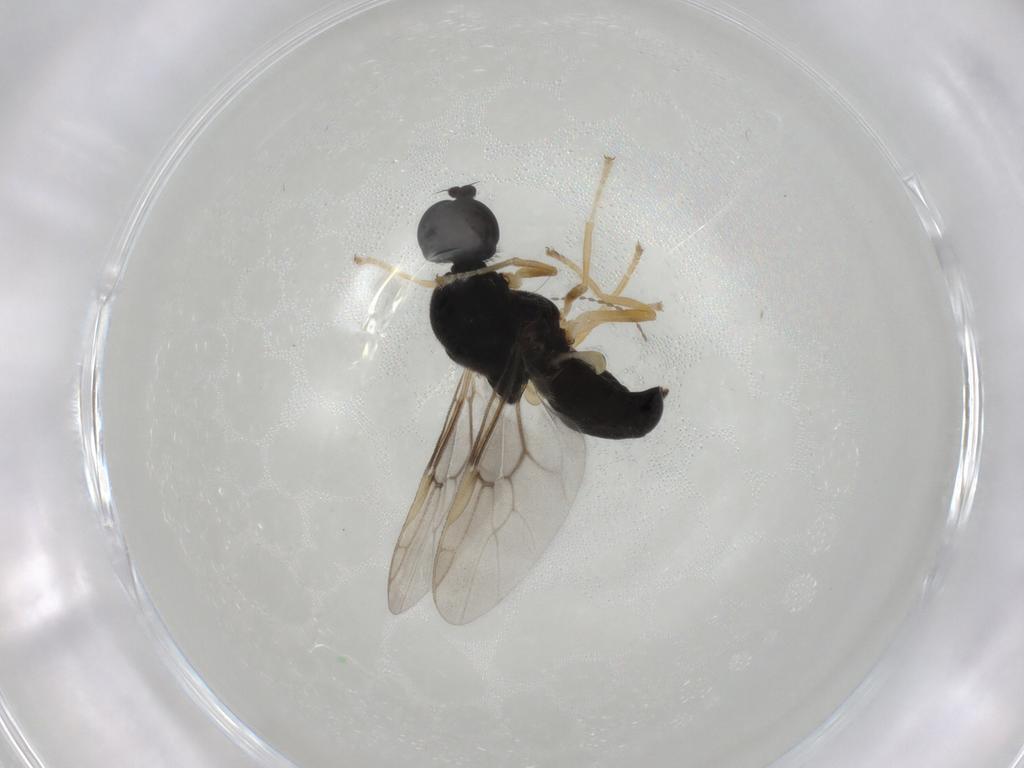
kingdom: Animalia
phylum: Arthropoda
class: Insecta
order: Diptera
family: Stratiomyidae
